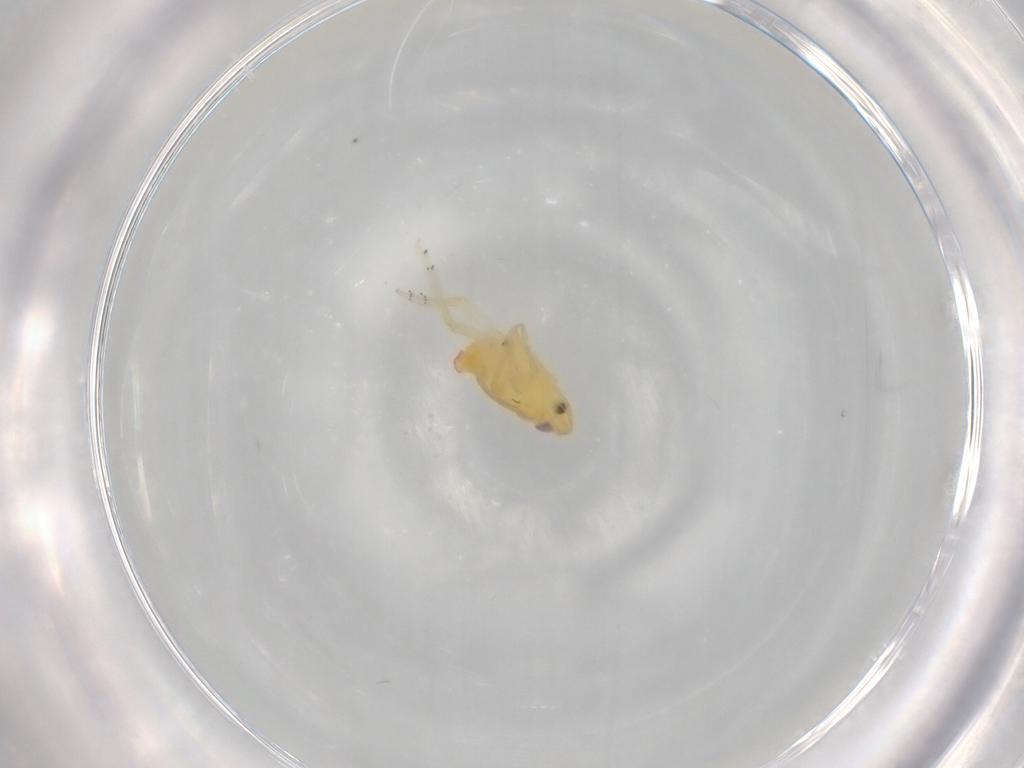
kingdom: Animalia
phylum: Arthropoda
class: Insecta
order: Hemiptera
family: Tropiduchidae
